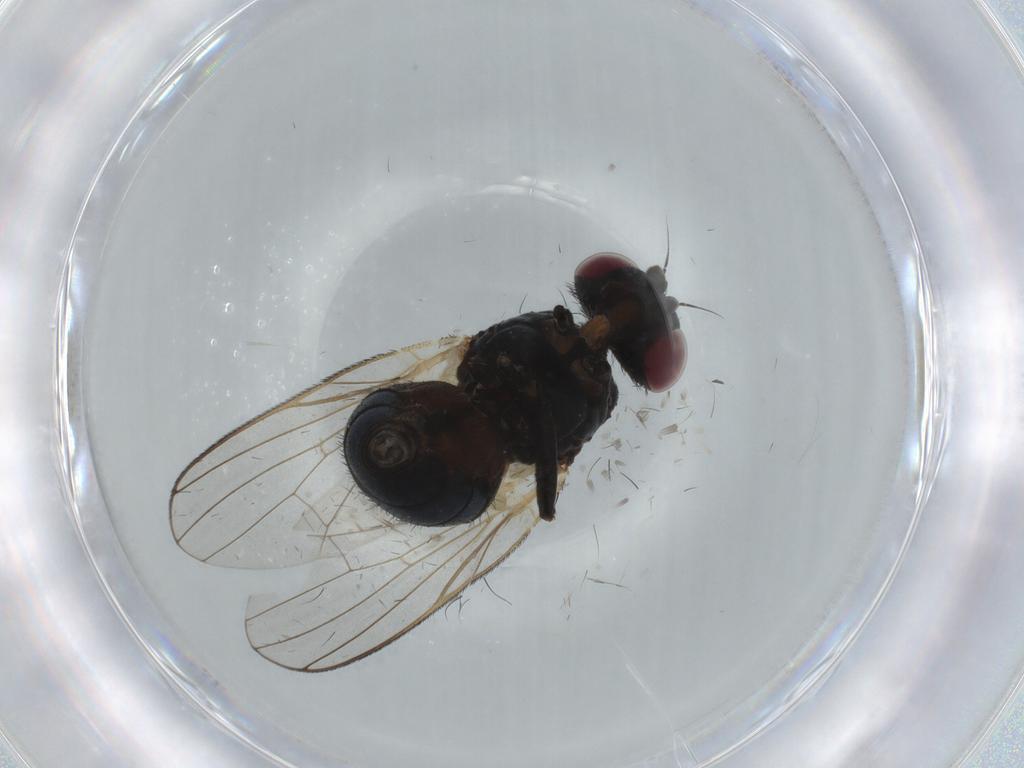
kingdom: Animalia
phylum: Arthropoda
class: Insecta
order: Diptera
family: Fannia
